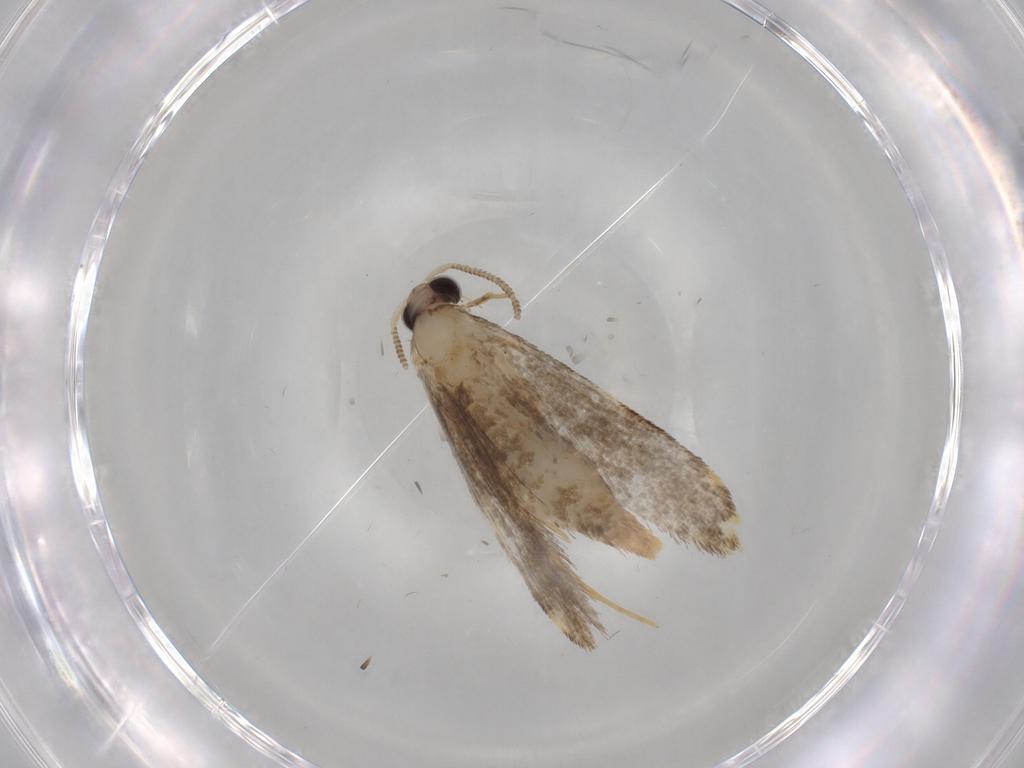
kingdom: Animalia
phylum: Arthropoda
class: Insecta
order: Lepidoptera
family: Tineidae
